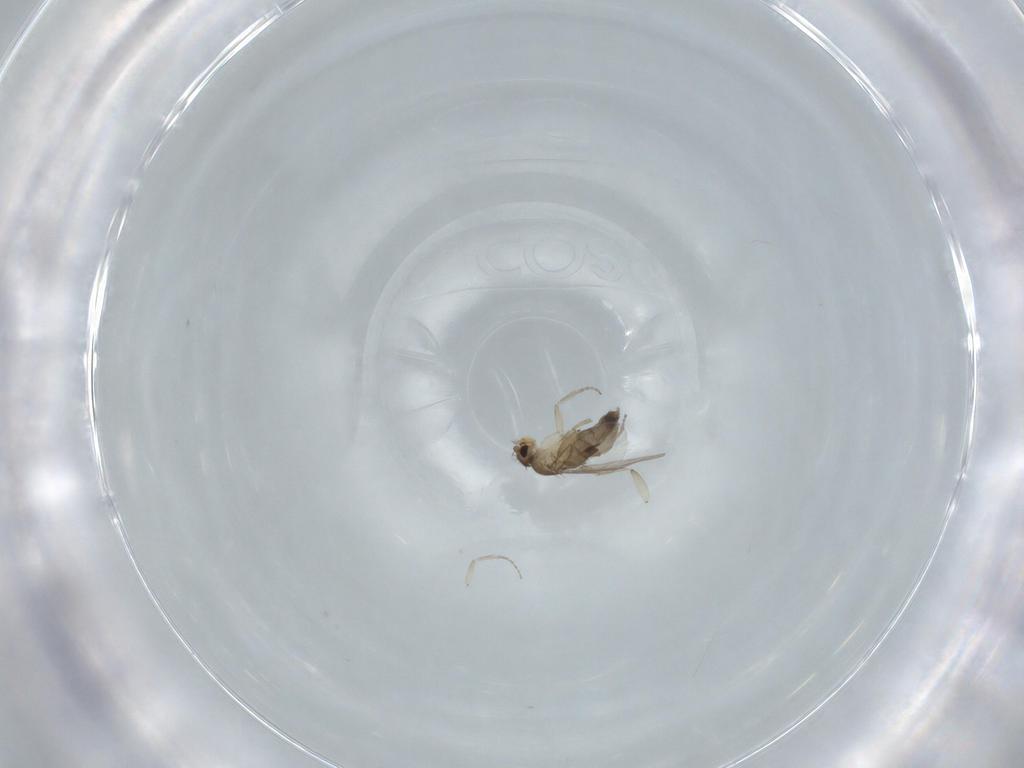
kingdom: Animalia
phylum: Arthropoda
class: Insecta
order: Diptera
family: Phoridae
